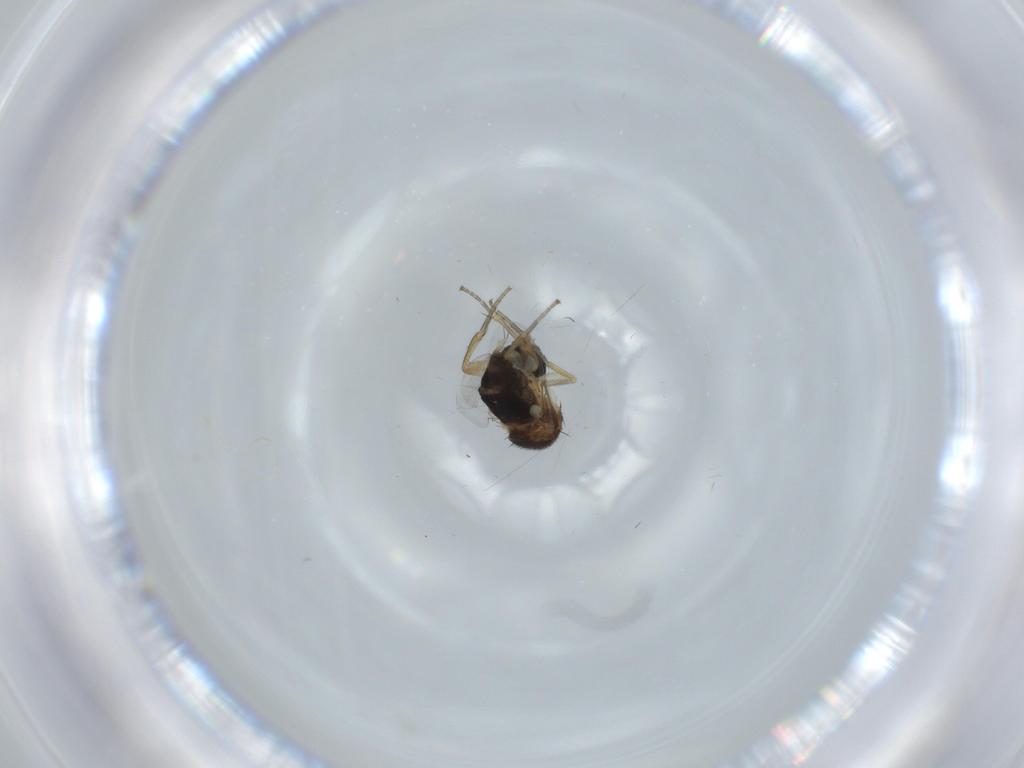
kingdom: Animalia
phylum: Arthropoda
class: Insecta
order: Diptera
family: Phoridae
